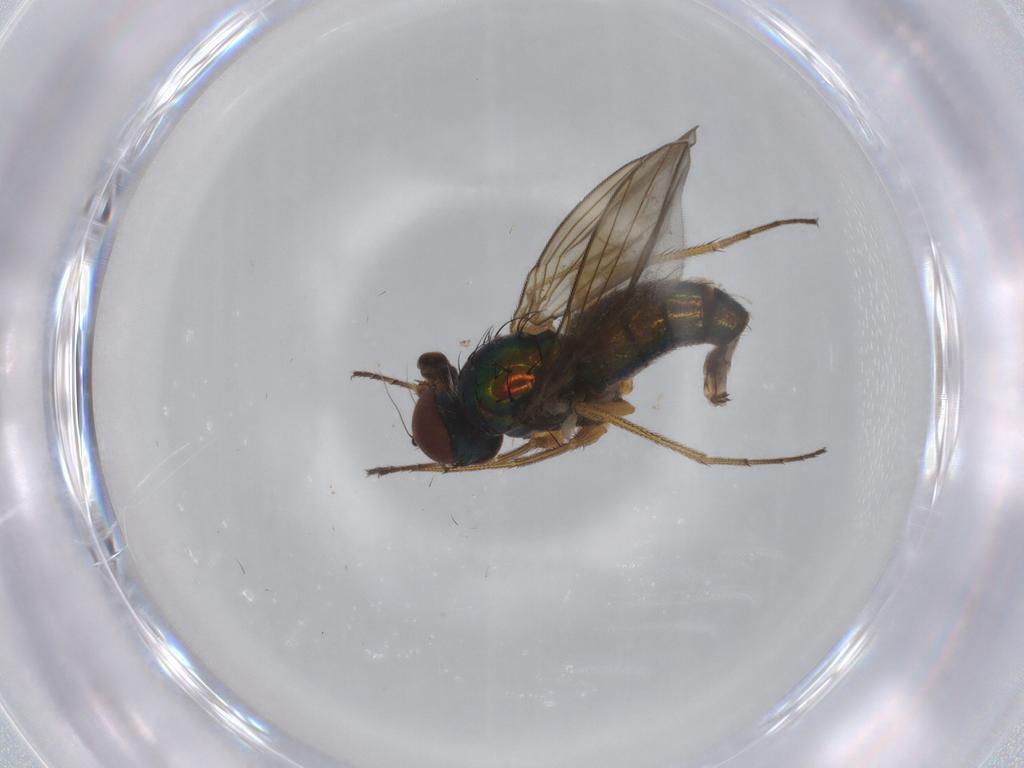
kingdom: Animalia
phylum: Arthropoda
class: Insecta
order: Diptera
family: Dolichopodidae
